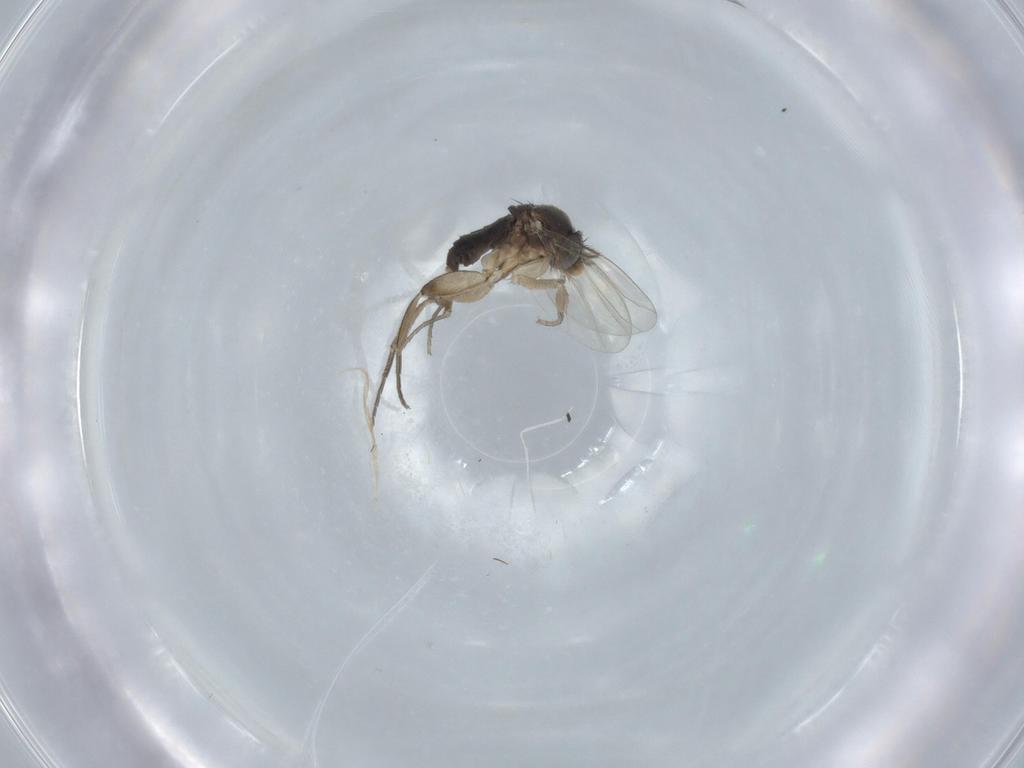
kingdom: Animalia
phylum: Arthropoda
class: Insecta
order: Diptera
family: Phoridae
